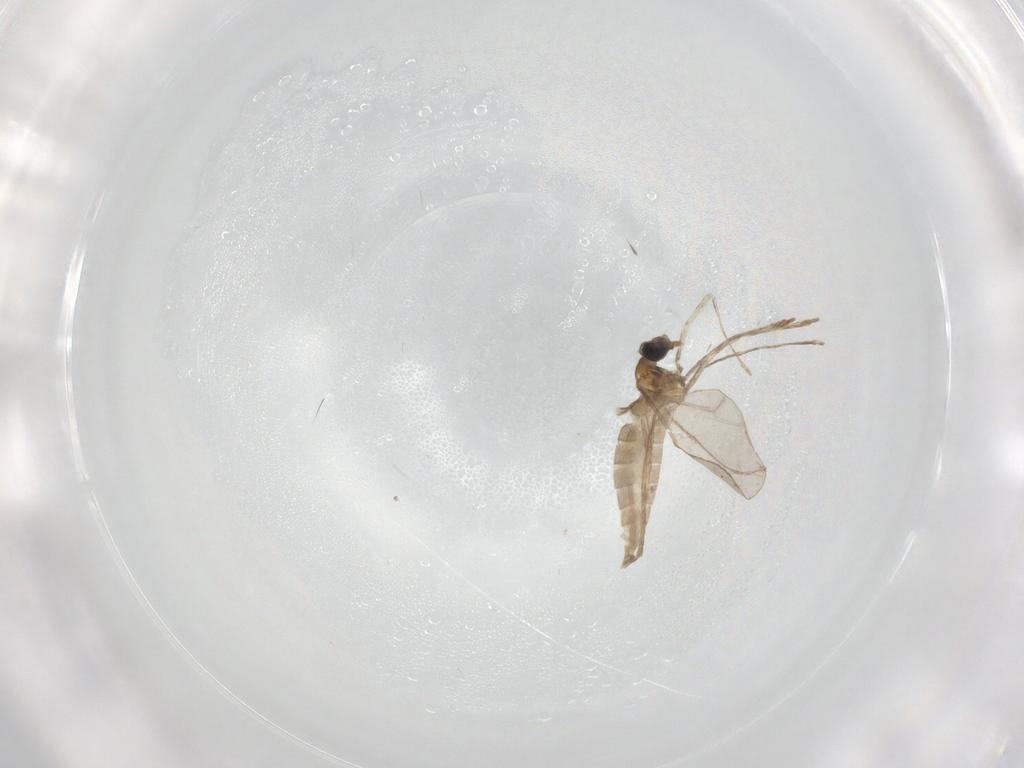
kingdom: Animalia
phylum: Arthropoda
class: Insecta
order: Diptera
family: Cecidomyiidae
